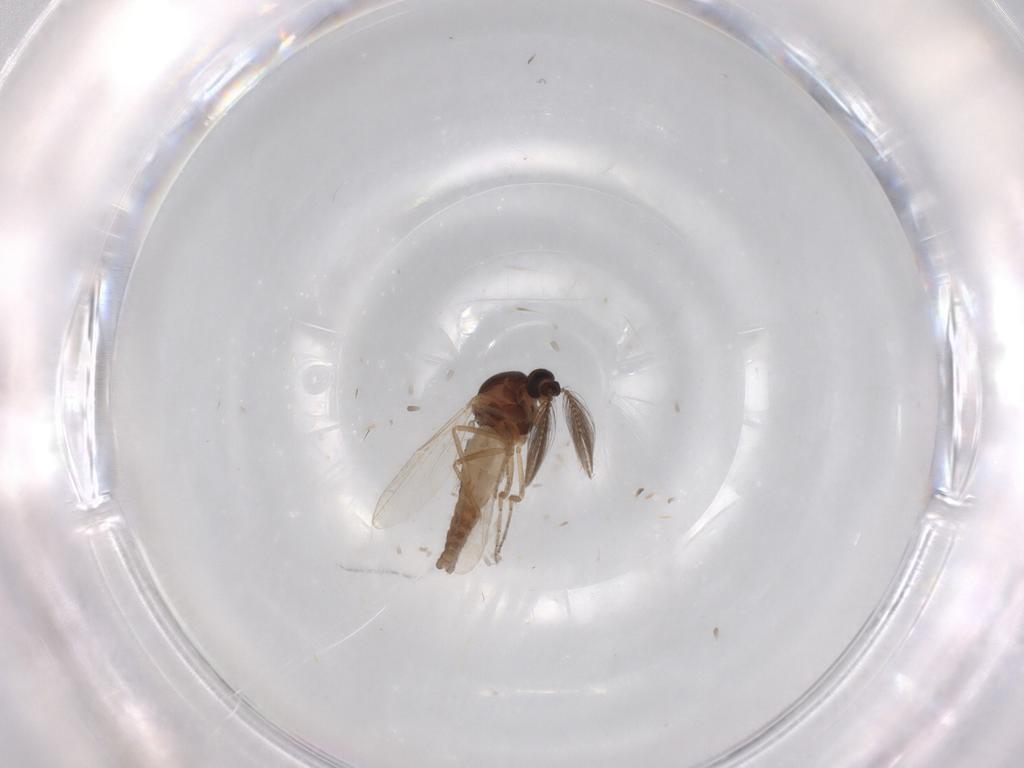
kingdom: Animalia
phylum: Arthropoda
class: Insecta
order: Diptera
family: Ceratopogonidae
